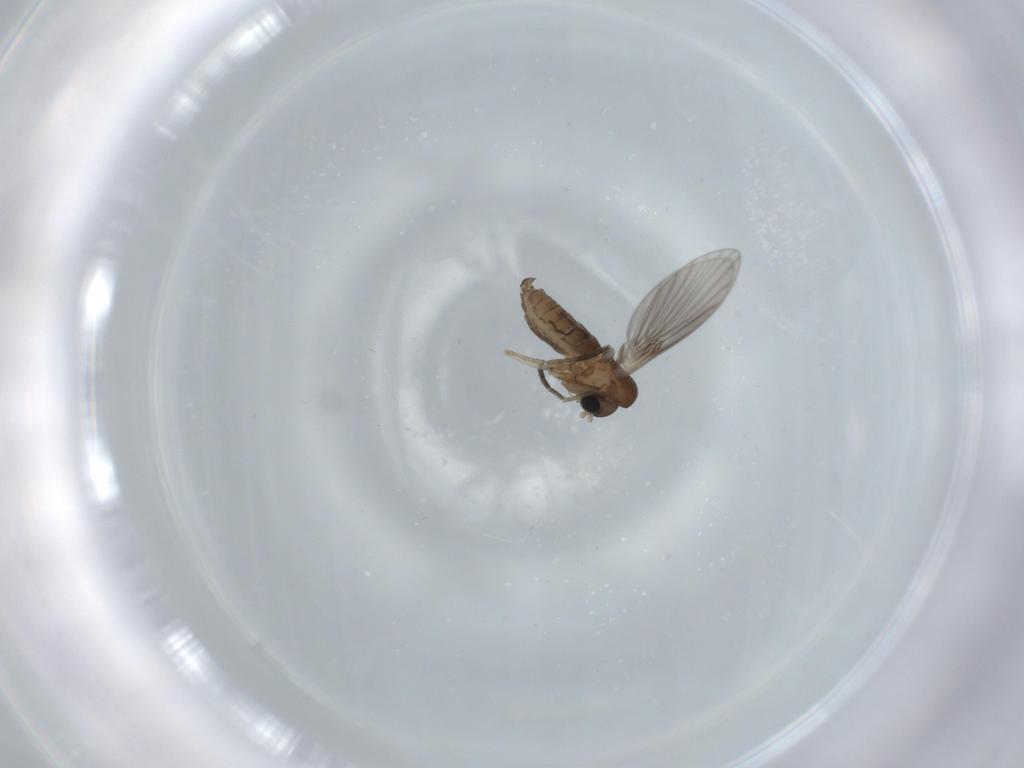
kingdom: Animalia
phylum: Arthropoda
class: Insecta
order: Diptera
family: Psychodidae
